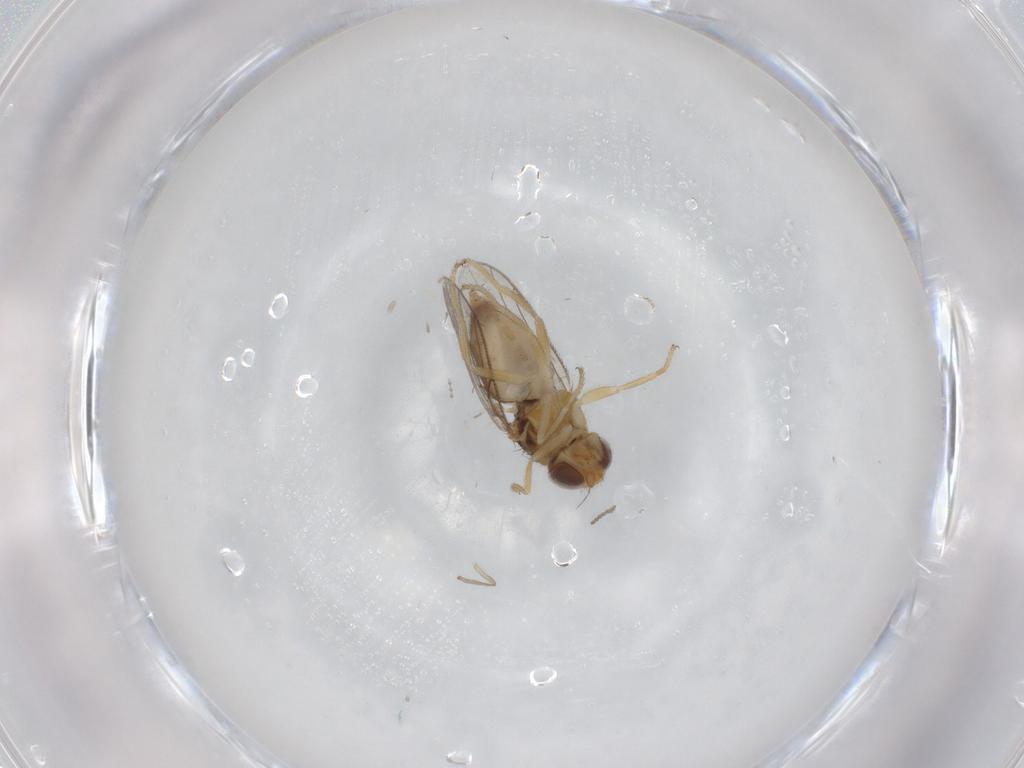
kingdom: Animalia
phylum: Arthropoda
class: Insecta
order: Diptera
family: Chloropidae
